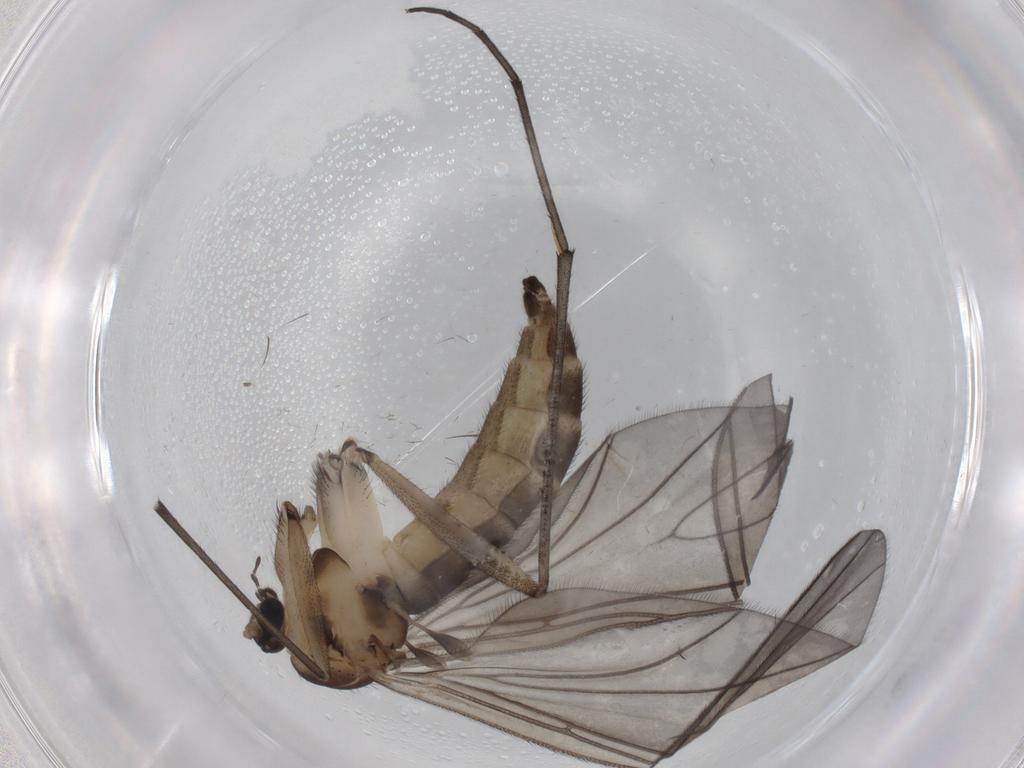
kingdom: Animalia
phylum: Arthropoda
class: Insecta
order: Diptera
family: Sciaridae
